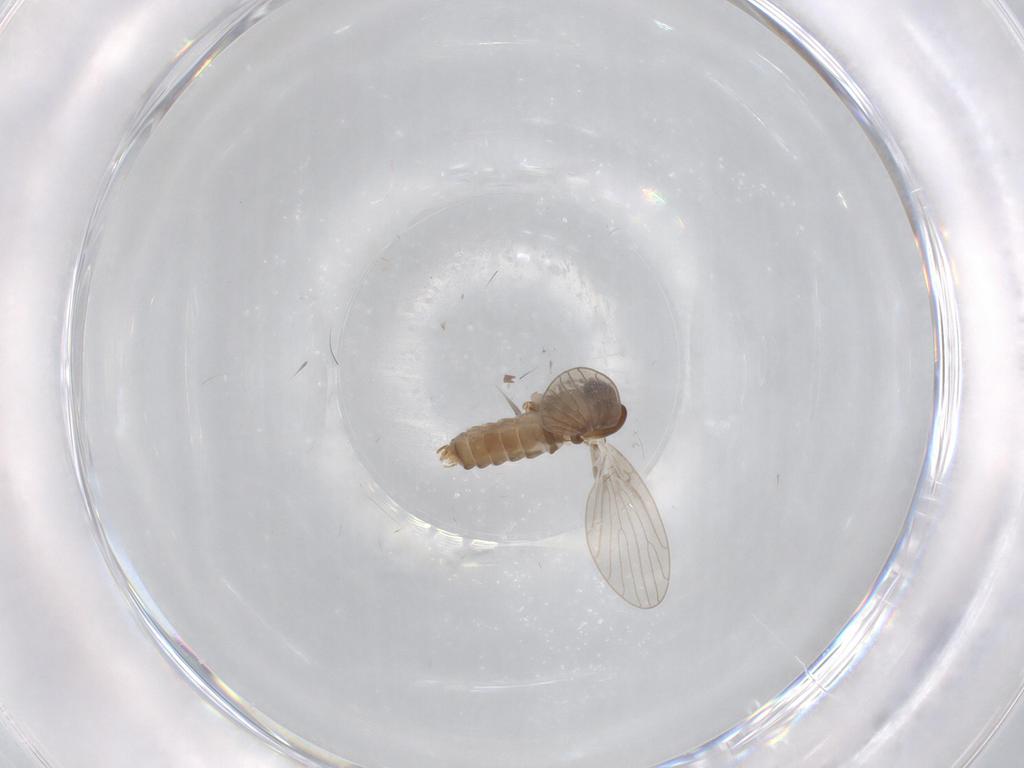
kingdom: Animalia
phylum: Arthropoda
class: Insecta
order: Diptera
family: Psychodidae
